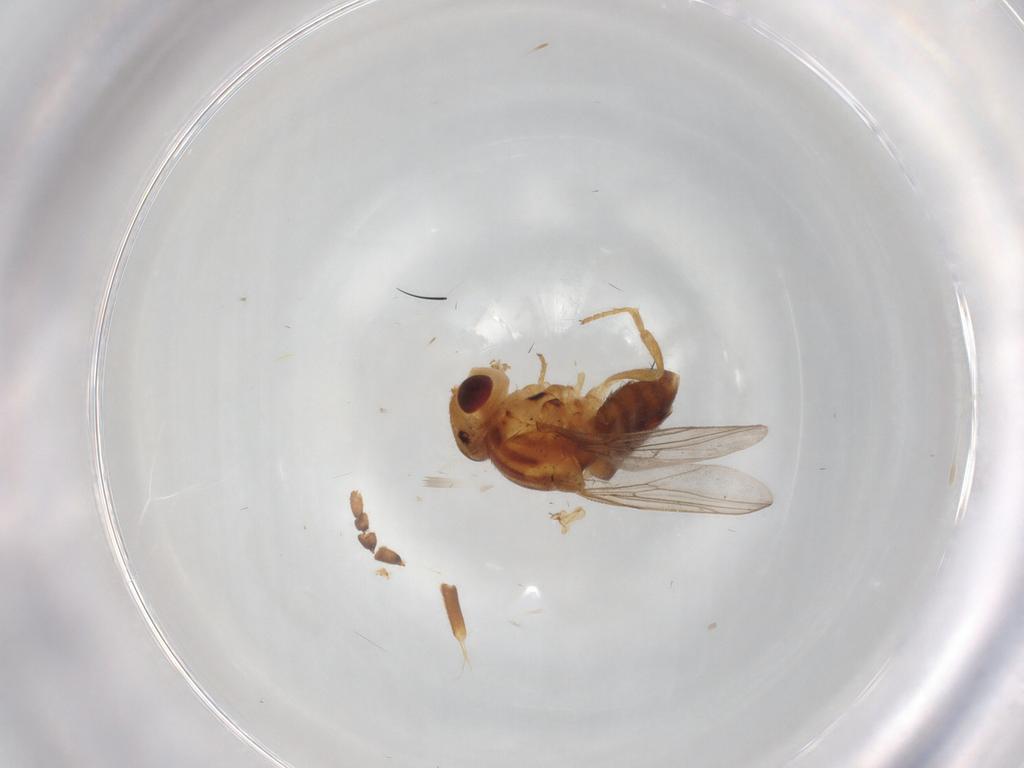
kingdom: Animalia
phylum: Arthropoda
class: Insecta
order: Diptera
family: Chloropidae
